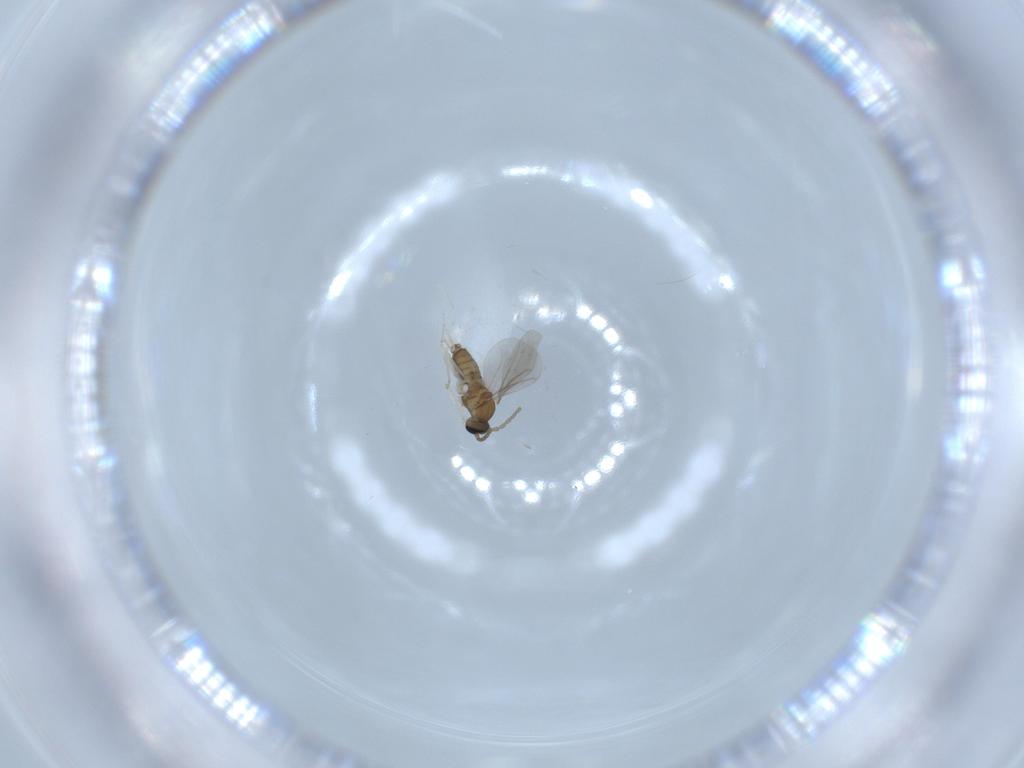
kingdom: Animalia
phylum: Arthropoda
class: Insecta
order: Diptera
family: Cecidomyiidae
